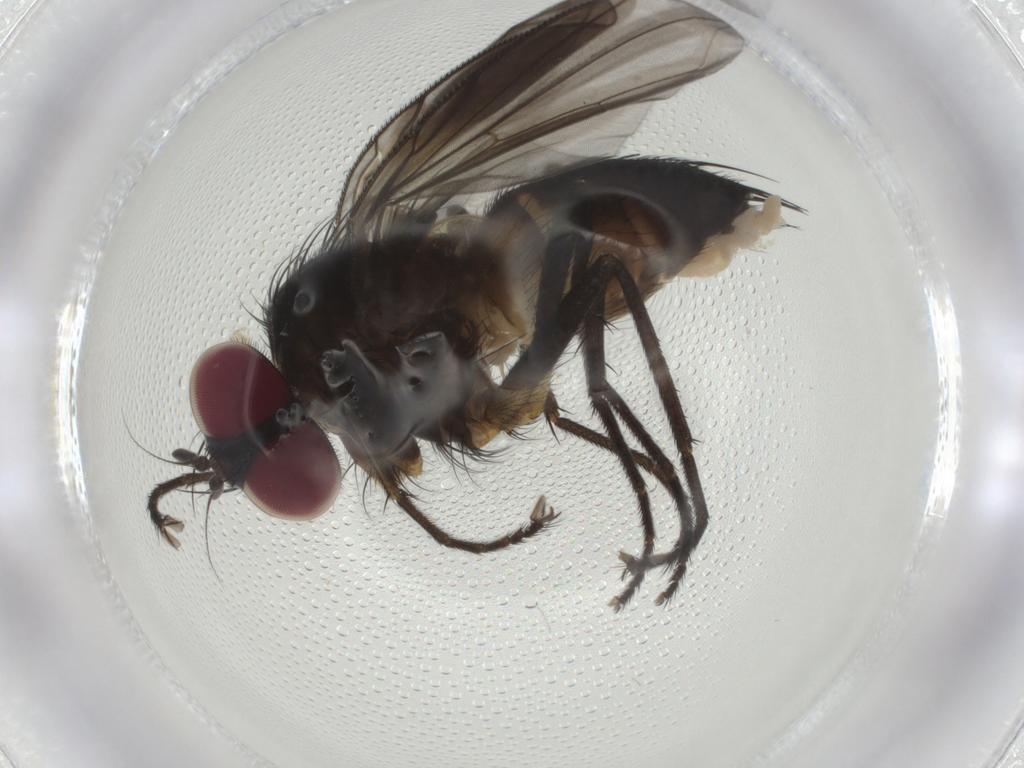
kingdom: Animalia
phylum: Arthropoda
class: Insecta
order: Diptera
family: Tachinidae
